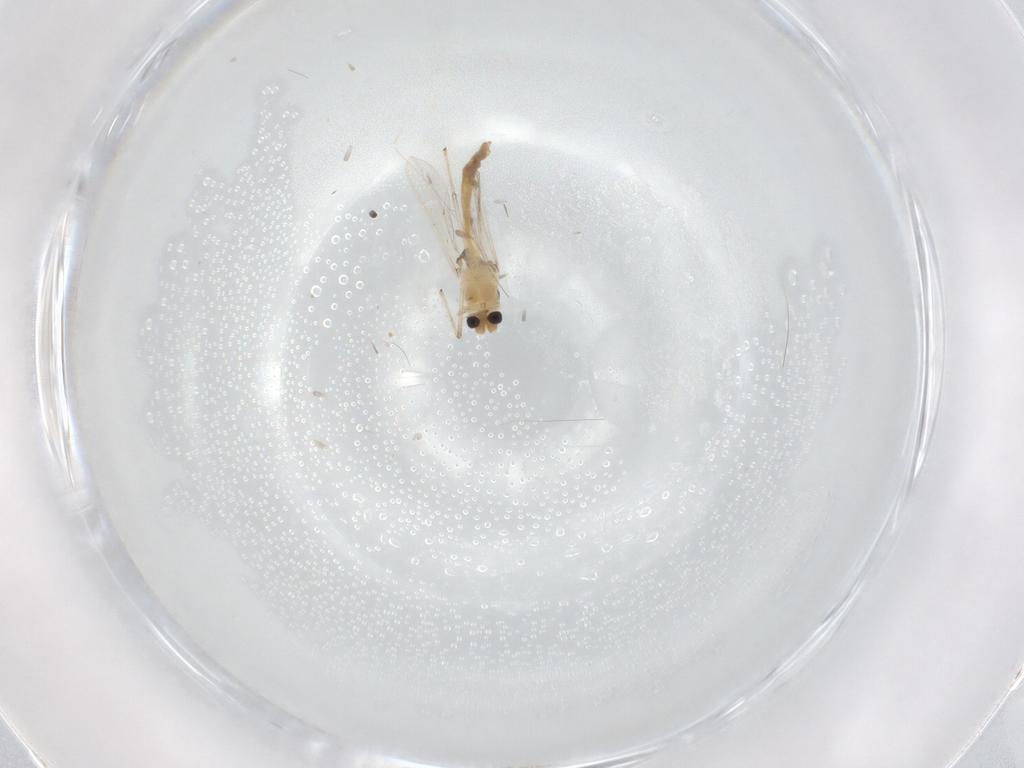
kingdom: Animalia
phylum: Arthropoda
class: Insecta
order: Diptera
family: Chironomidae
